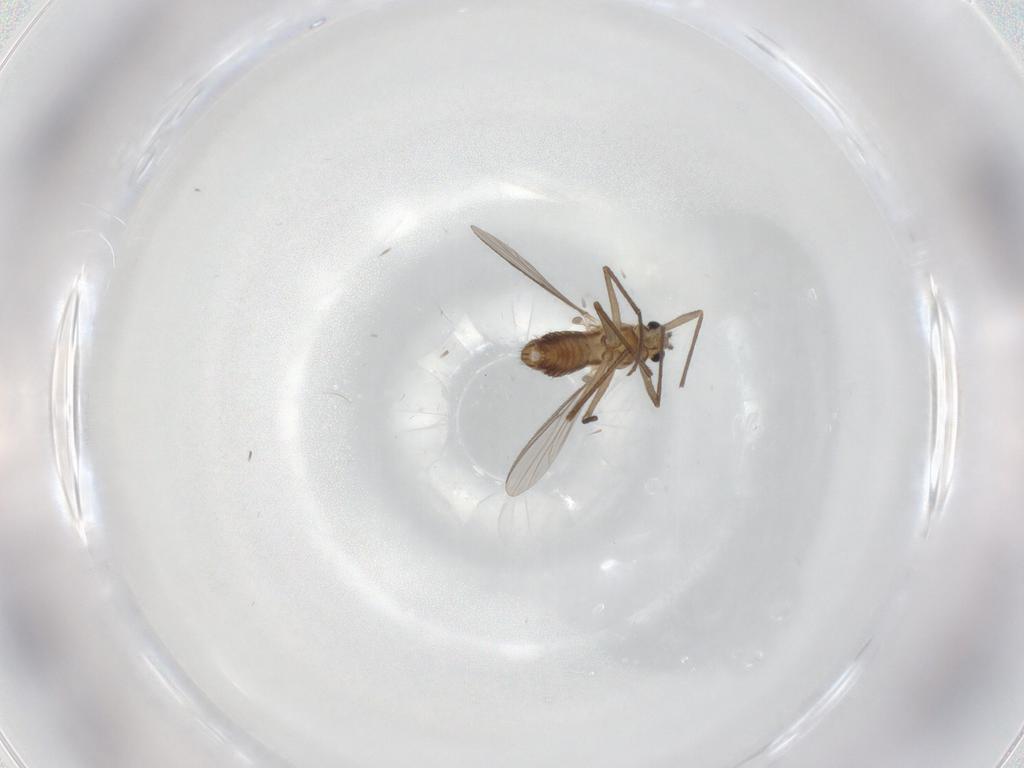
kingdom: Animalia
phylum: Arthropoda
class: Insecta
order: Diptera
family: Chironomidae
